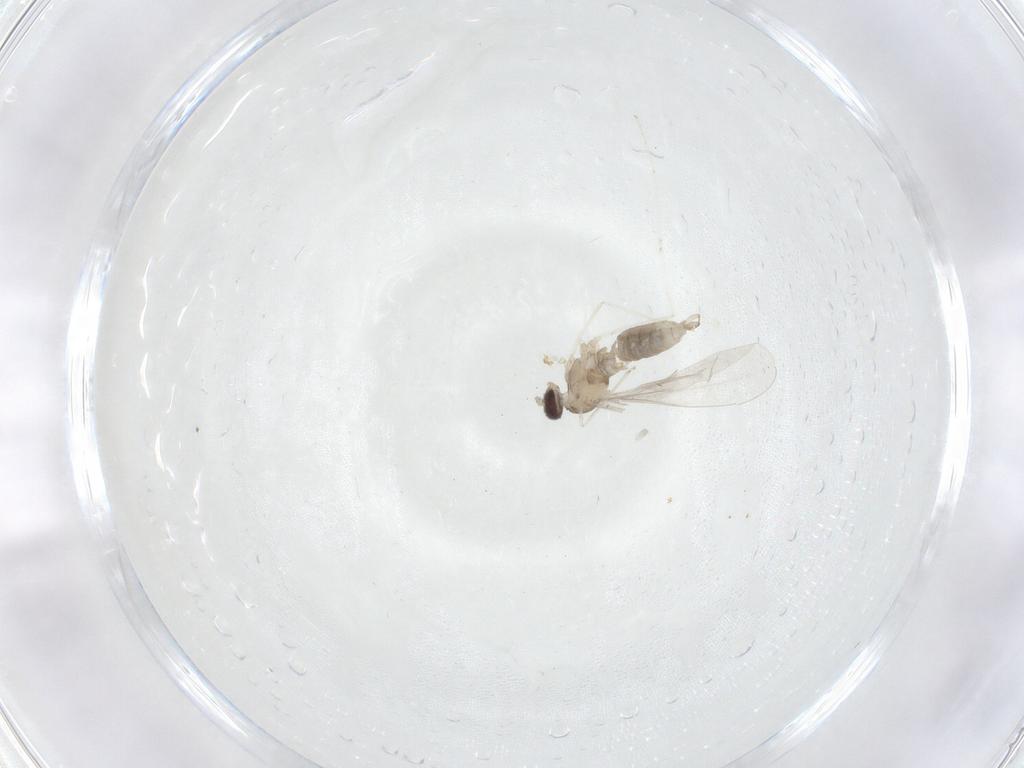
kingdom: Animalia
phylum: Arthropoda
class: Insecta
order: Diptera
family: Cecidomyiidae
